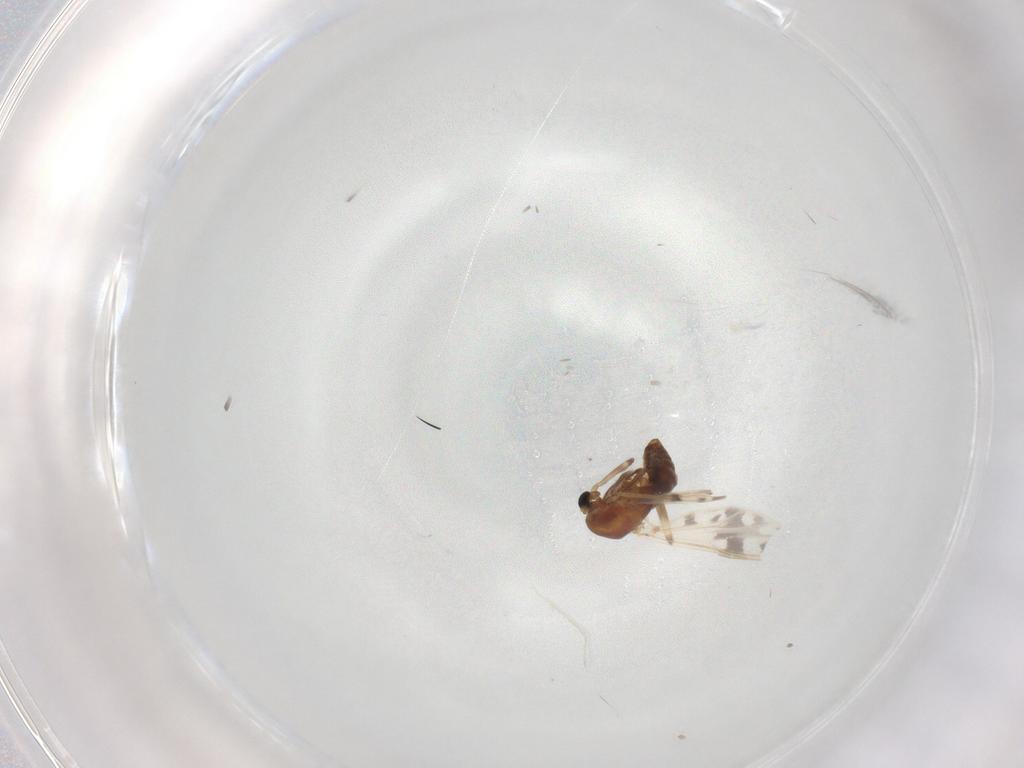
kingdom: Animalia
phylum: Arthropoda
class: Insecta
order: Diptera
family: Chironomidae
